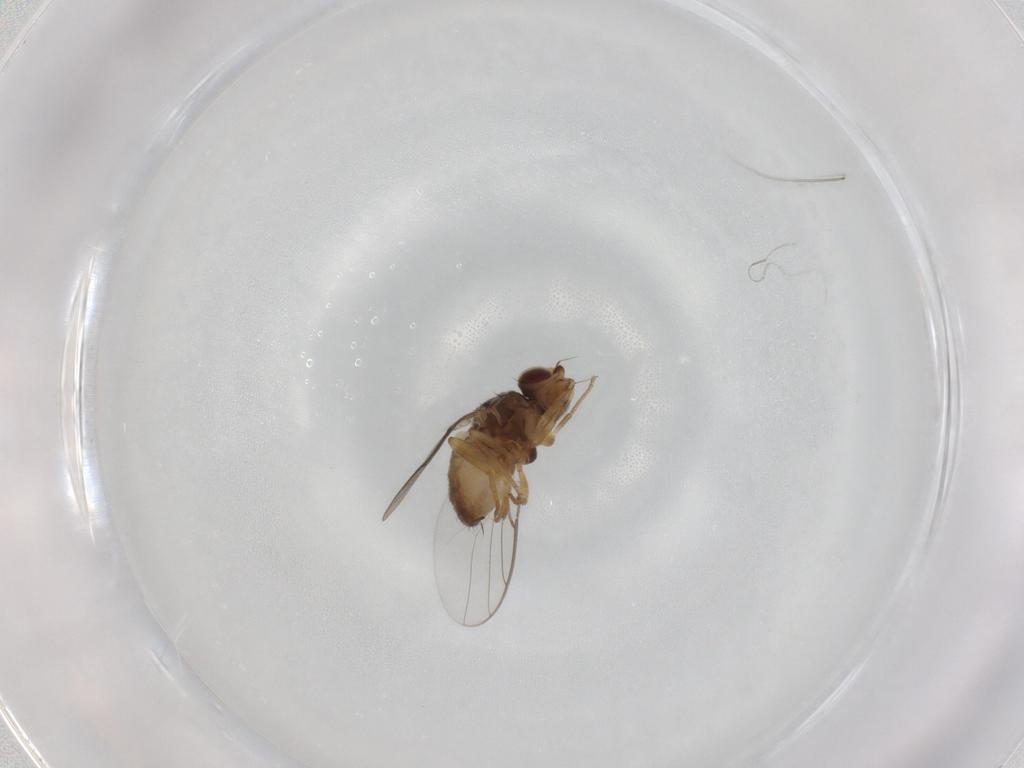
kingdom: Animalia
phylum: Arthropoda
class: Insecta
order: Diptera
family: Chloropidae
